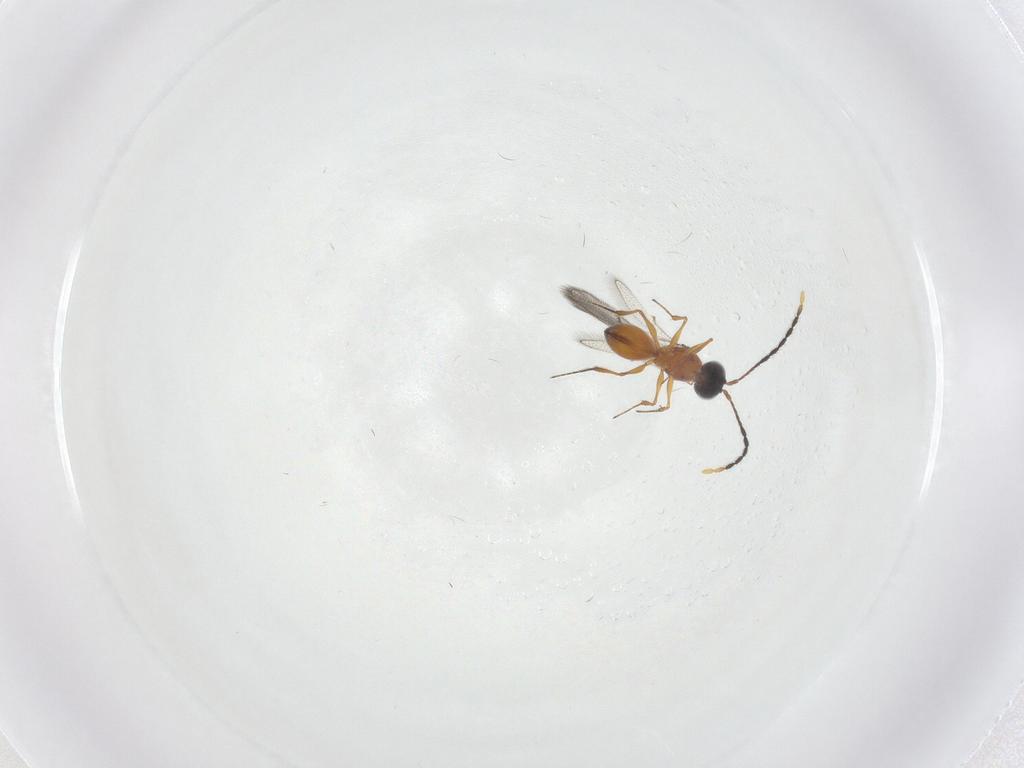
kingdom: Animalia
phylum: Arthropoda
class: Insecta
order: Hymenoptera
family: Figitidae
